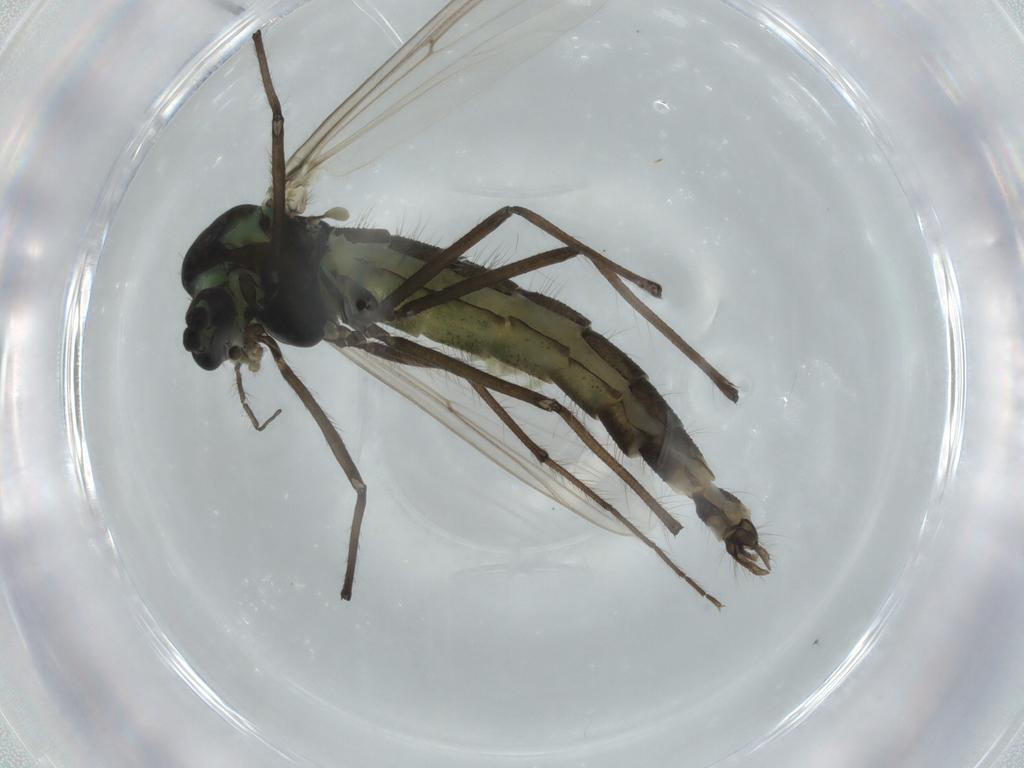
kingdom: Animalia
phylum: Arthropoda
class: Insecta
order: Diptera
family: Chironomidae
